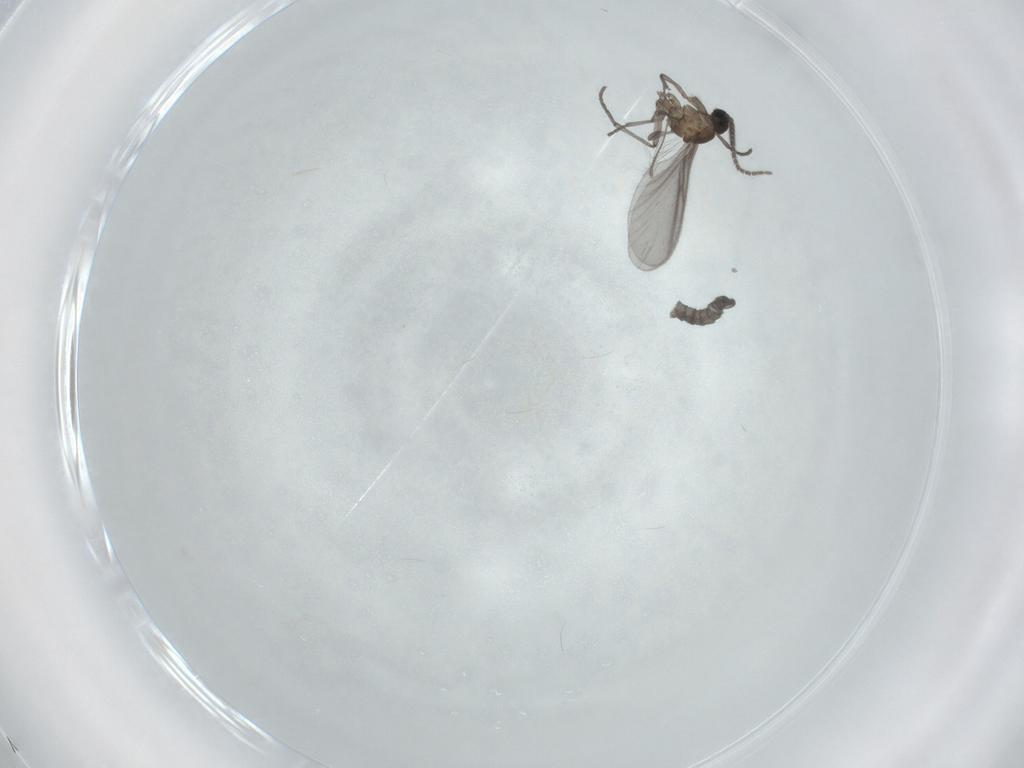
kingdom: Animalia
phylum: Arthropoda
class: Insecta
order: Diptera
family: Sciaridae
